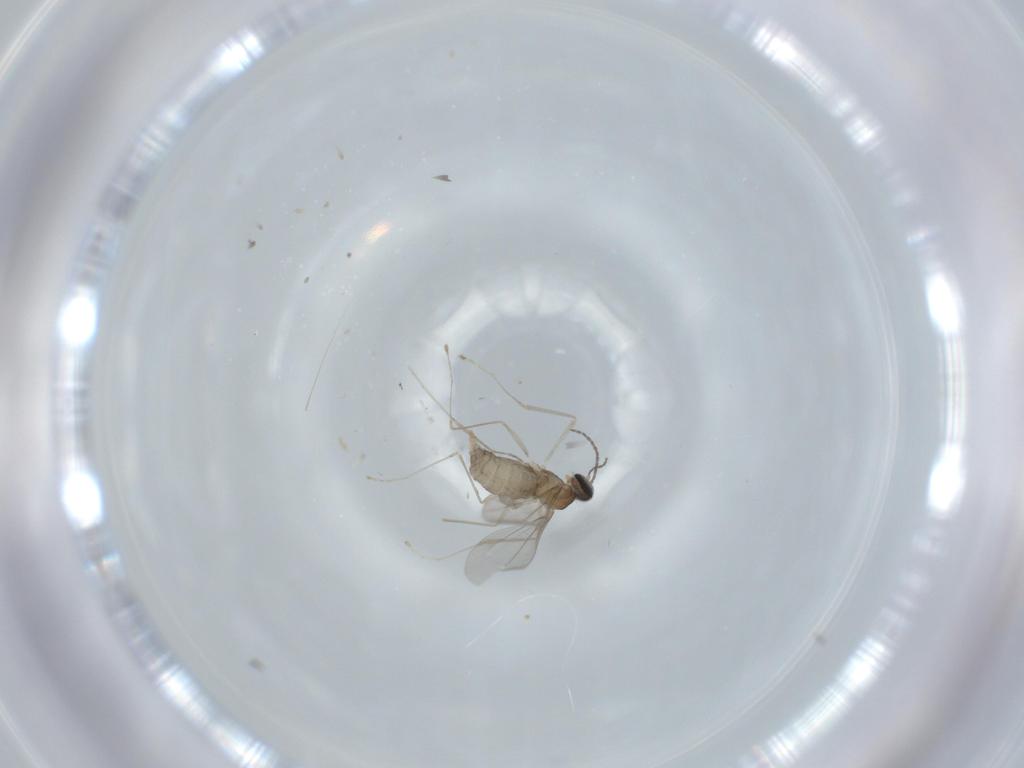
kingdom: Animalia
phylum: Arthropoda
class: Insecta
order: Diptera
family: Cecidomyiidae
